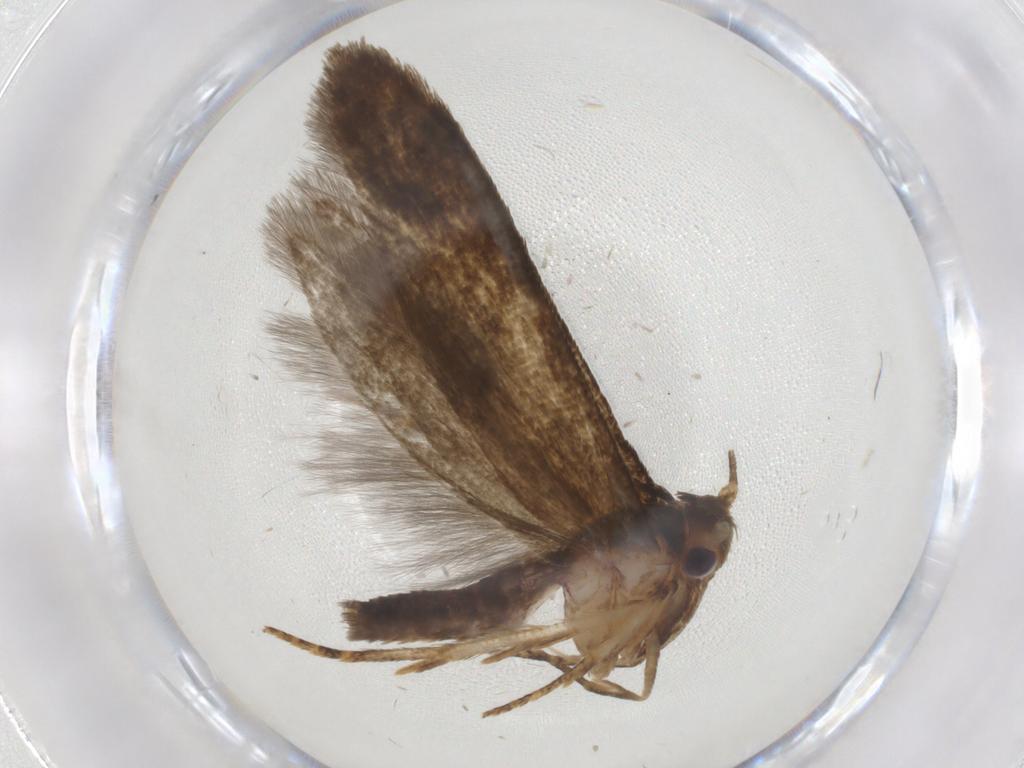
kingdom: Animalia
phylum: Arthropoda
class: Insecta
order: Lepidoptera
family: Blastobasidae
